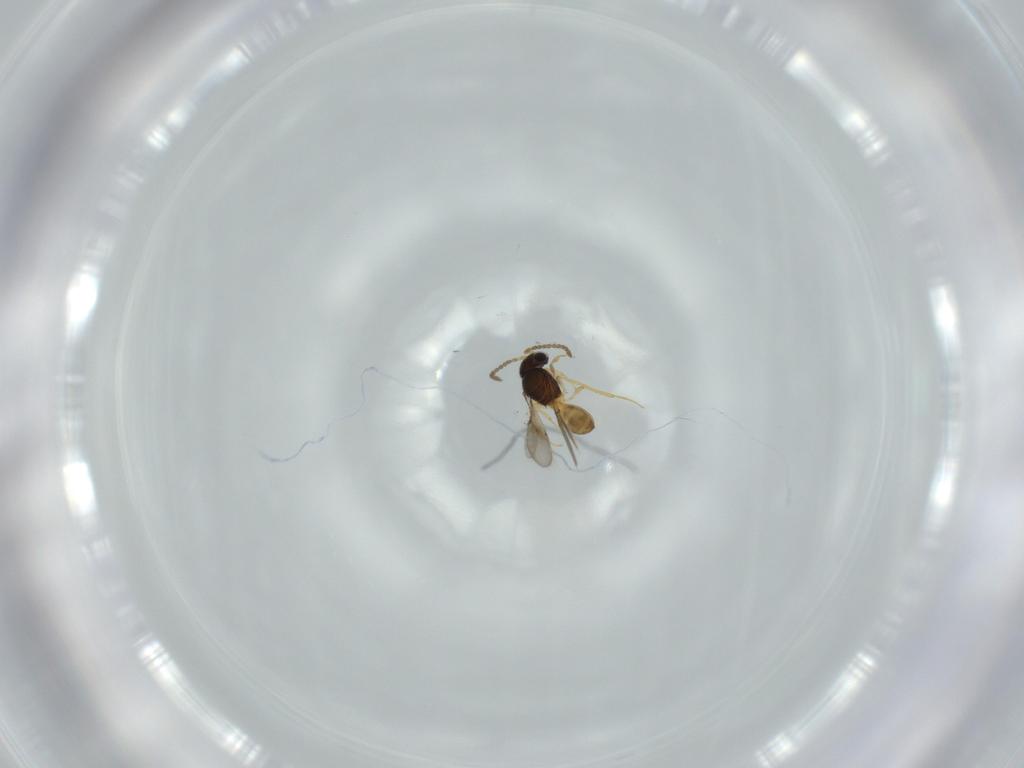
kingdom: Animalia
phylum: Arthropoda
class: Insecta
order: Hymenoptera
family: Scelionidae
